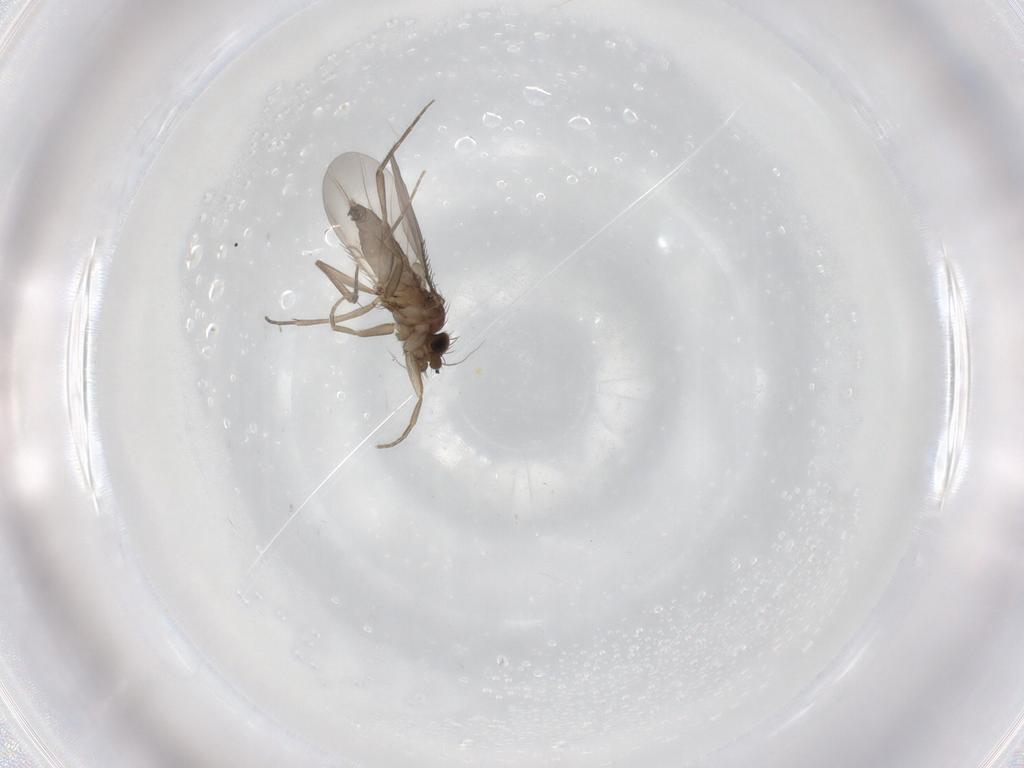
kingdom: Animalia
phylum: Arthropoda
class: Insecta
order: Diptera
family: Phoridae
